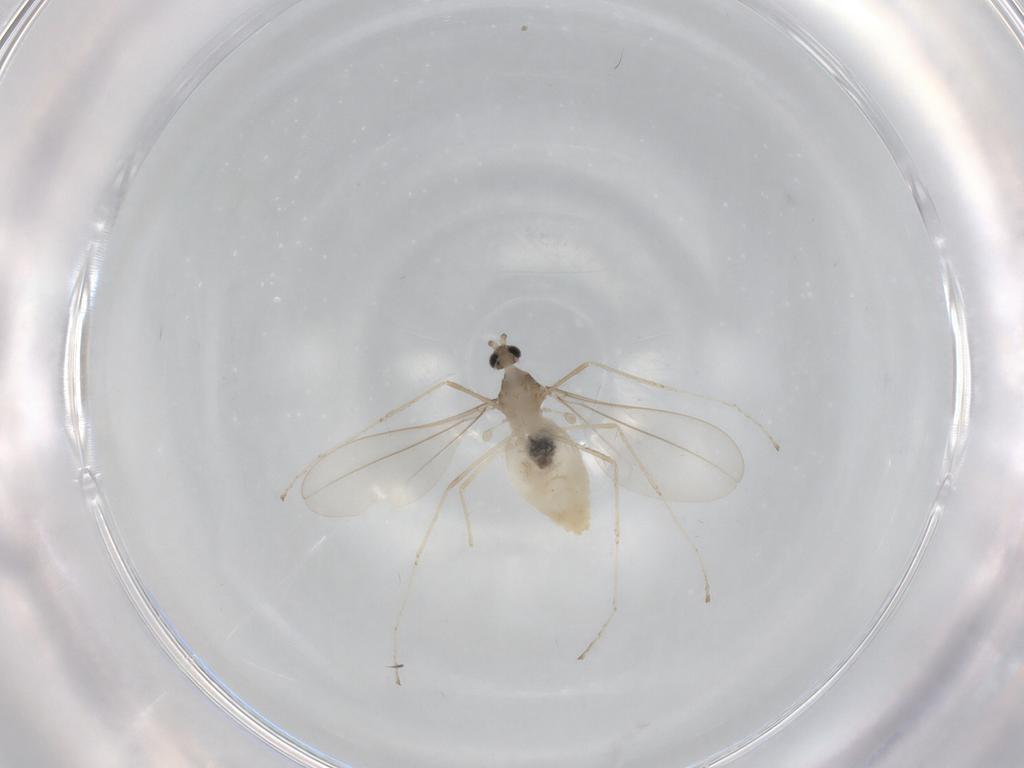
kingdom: Animalia
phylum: Arthropoda
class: Insecta
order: Diptera
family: Cecidomyiidae
